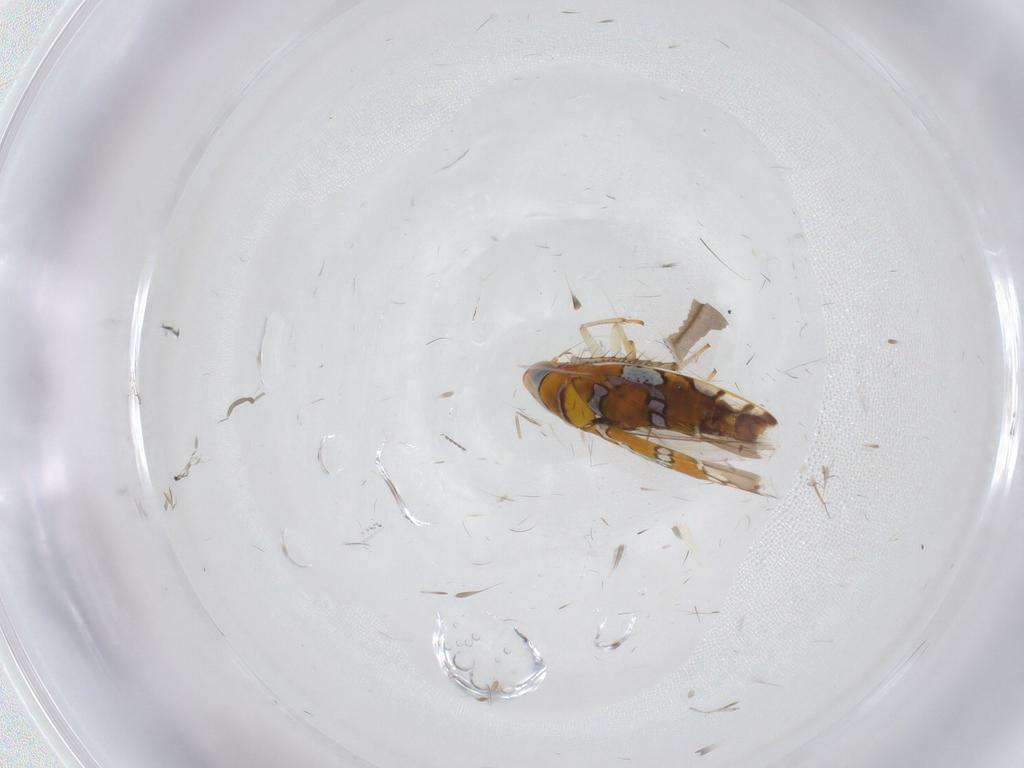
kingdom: Animalia
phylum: Arthropoda
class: Insecta
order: Hemiptera
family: Cicadellidae
